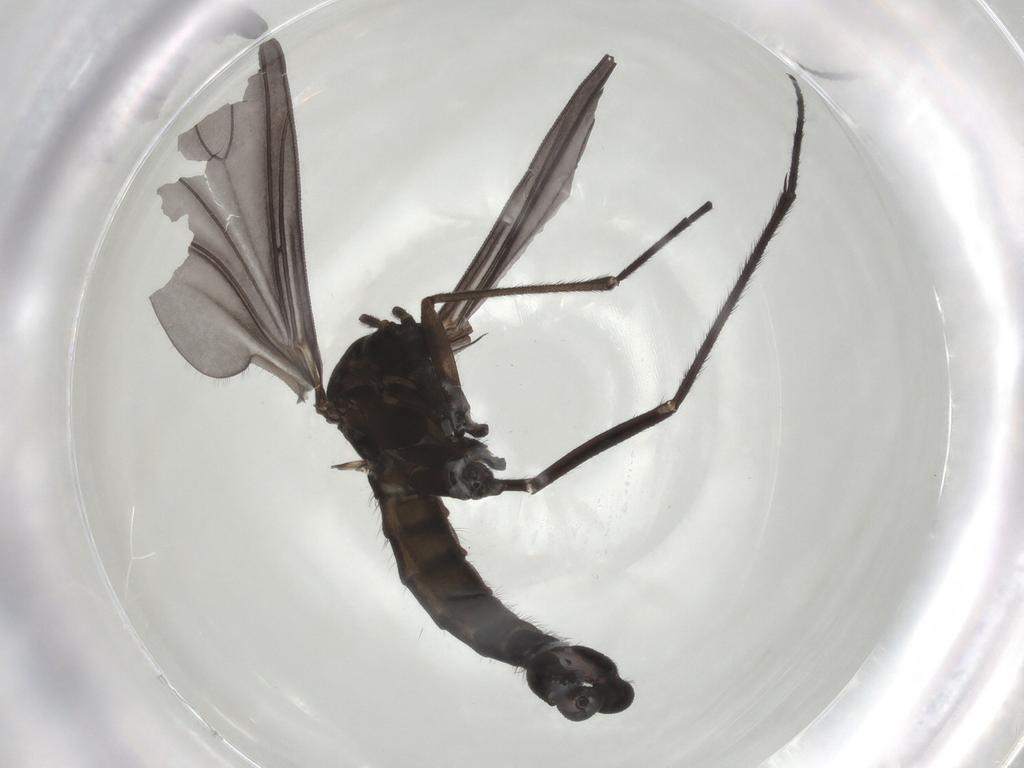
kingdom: Animalia
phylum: Arthropoda
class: Insecta
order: Diptera
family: Sciaridae
